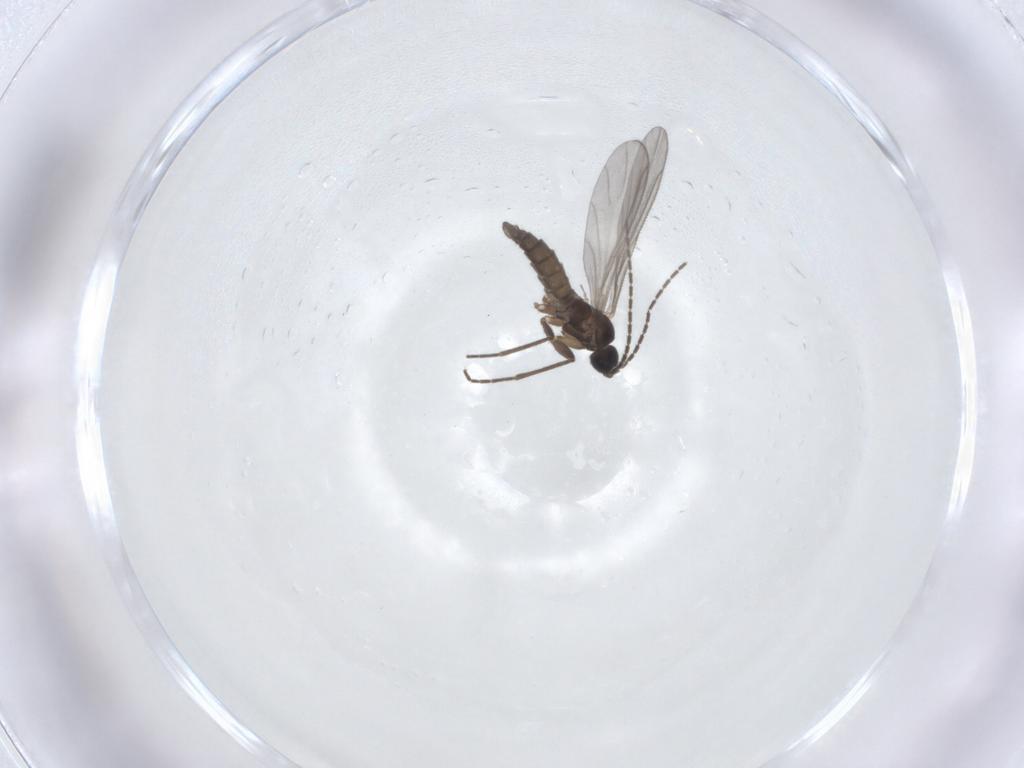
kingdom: Animalia
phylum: Arthropoda
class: Insecta
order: Diptera
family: Sciaridae
